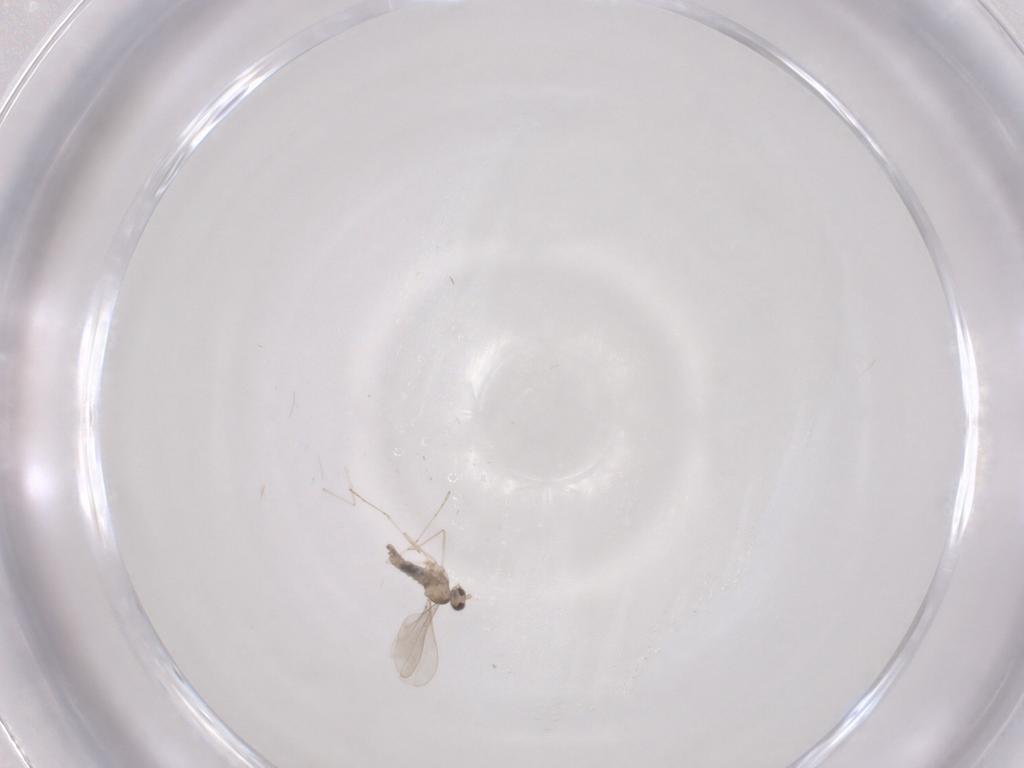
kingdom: Animalia
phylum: Arthropoda
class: Insecta
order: Diptera
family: Cecidomyiidae
